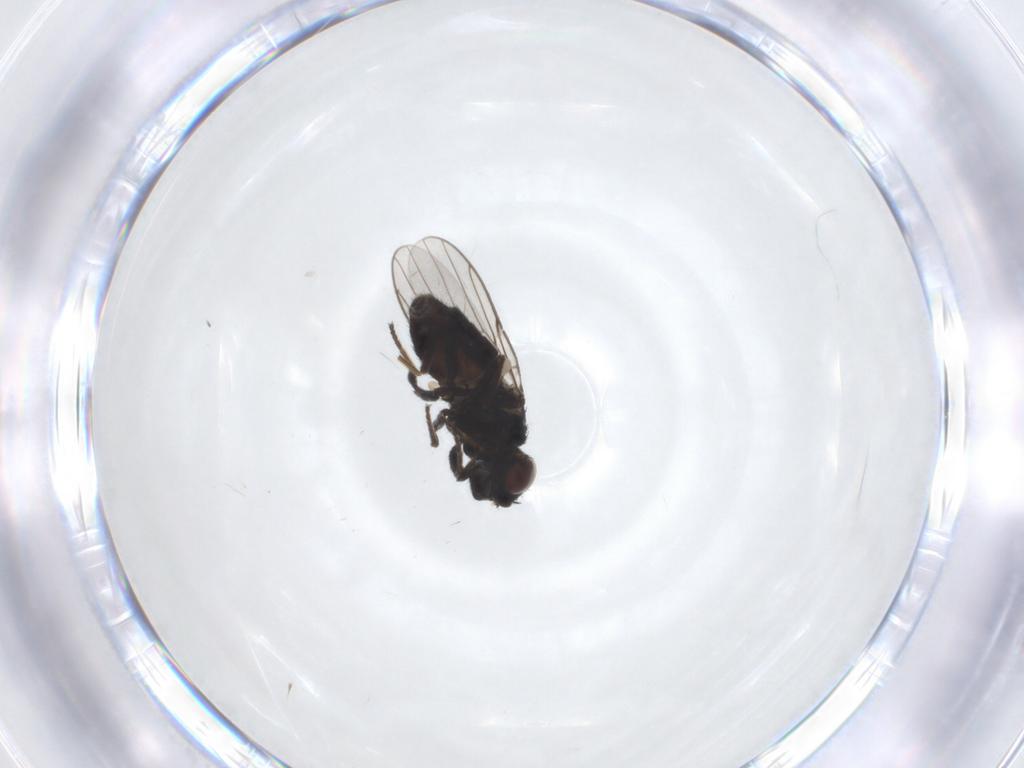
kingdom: Animalia
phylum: Arthropoda
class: Insecta
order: Diptera
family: Chloropidae
